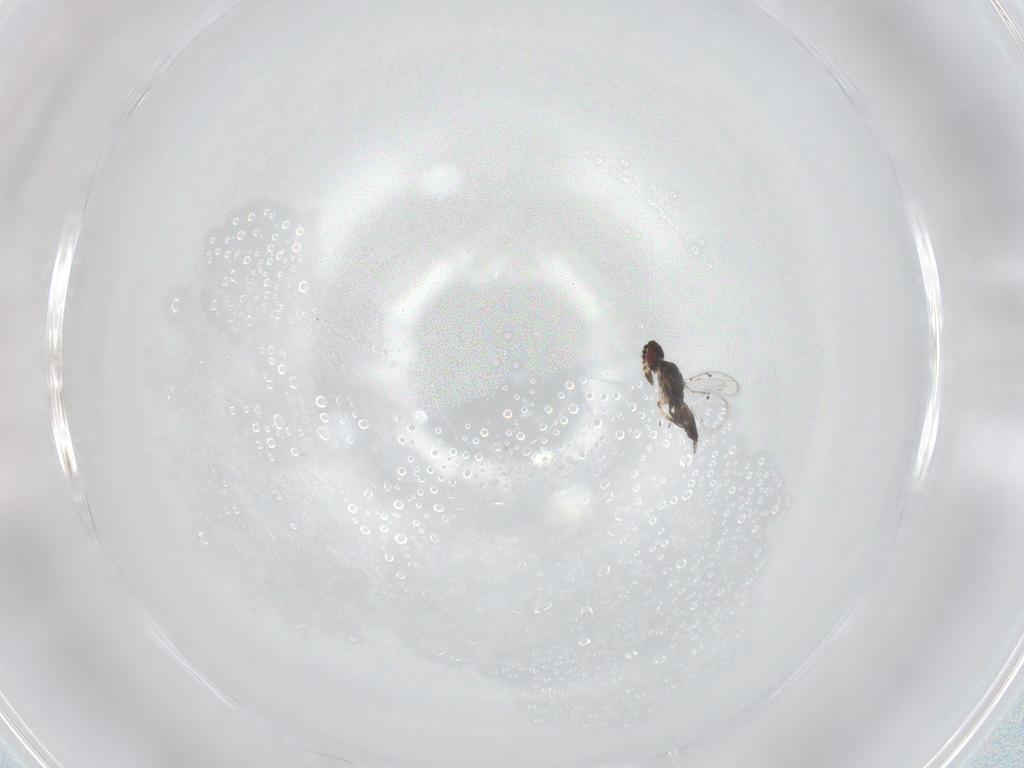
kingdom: Animalia
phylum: Arthropoda
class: Insecta
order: Hymenoptera
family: Eulophidae
